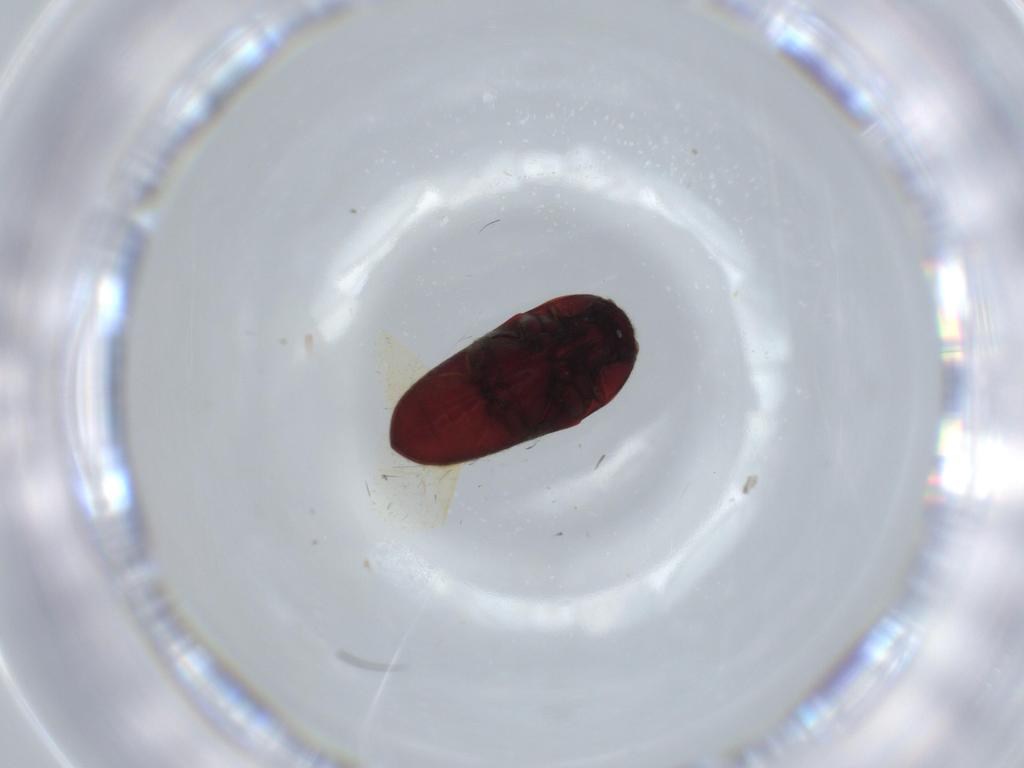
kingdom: Animalia
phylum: Arthropoda
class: Insecta
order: Coleoptera
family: Throscidae
